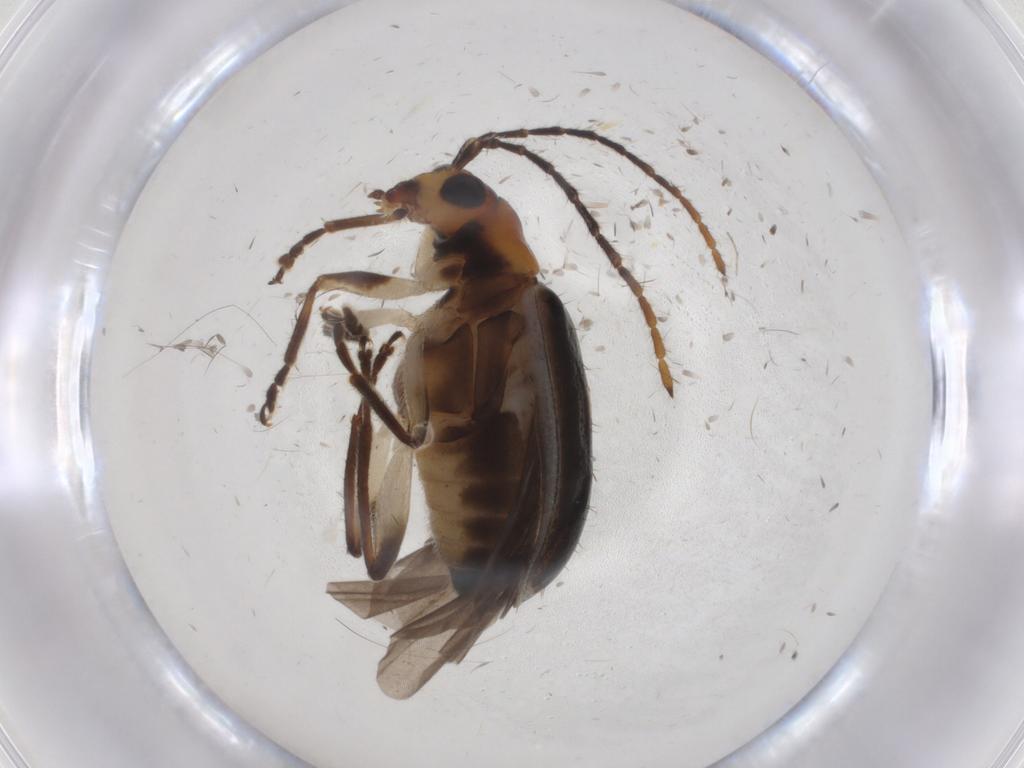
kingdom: Animalia
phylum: Arthropoda
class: Insecta
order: Coleoptera
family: Chrysomelidae
